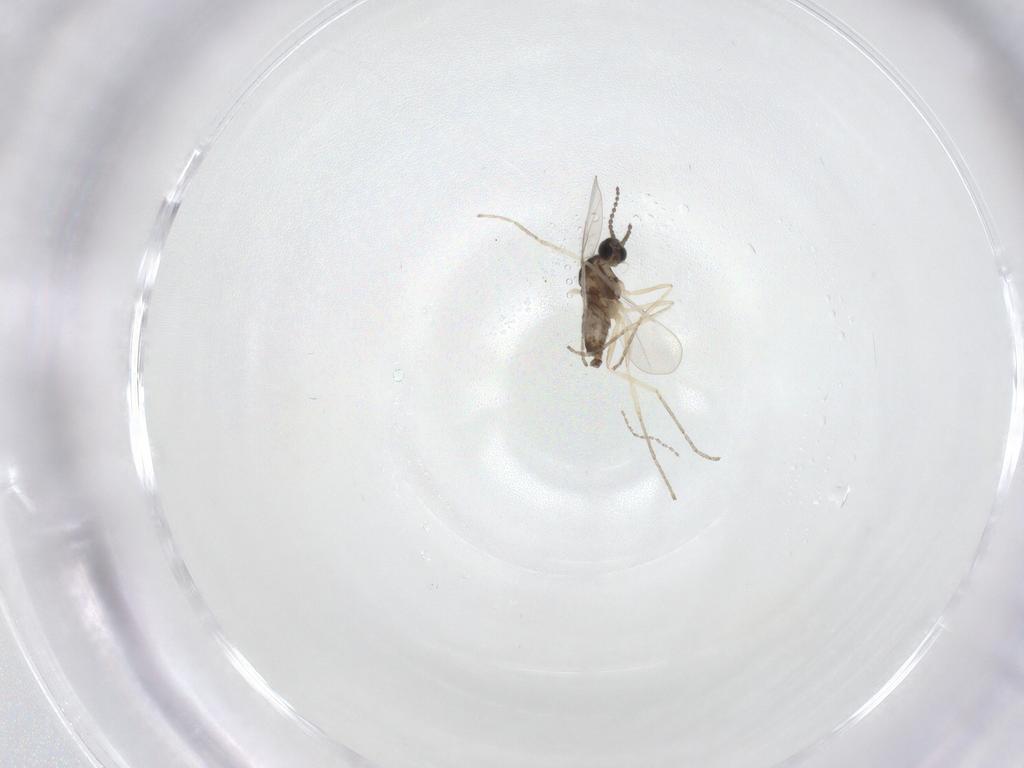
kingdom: Animalia
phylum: Arthropoda
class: Insecta
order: Diptera
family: Cecidomyiidae
